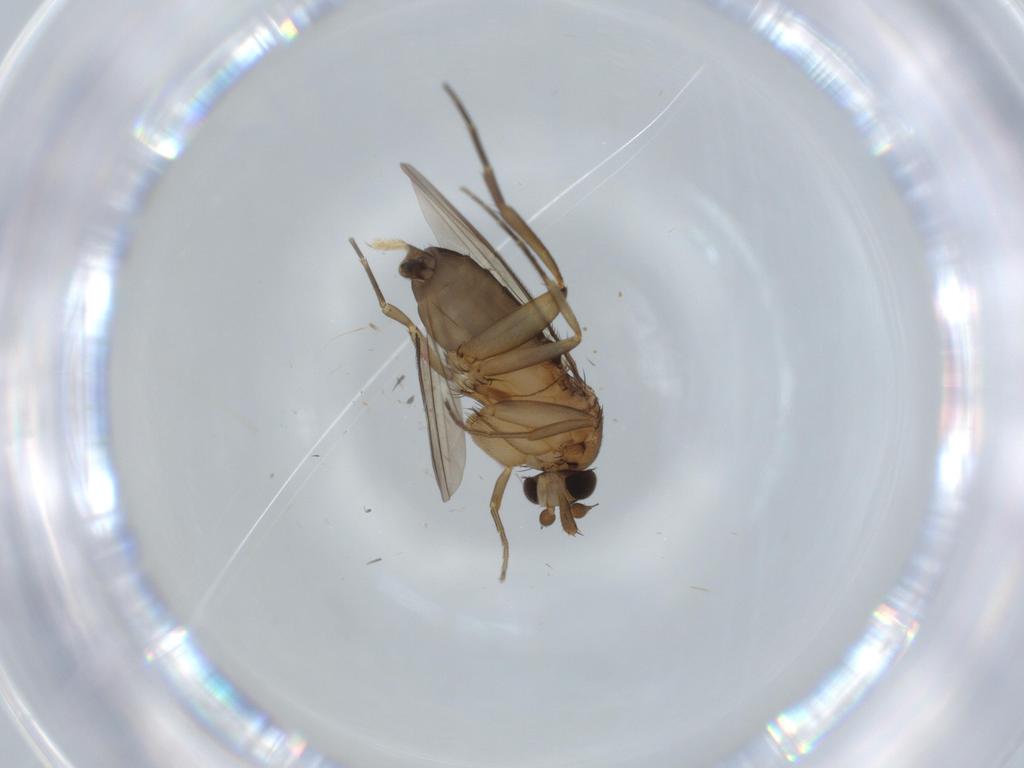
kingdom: Animalia
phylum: Arthropoda
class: Insecta
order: Diptera
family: Phoridae
